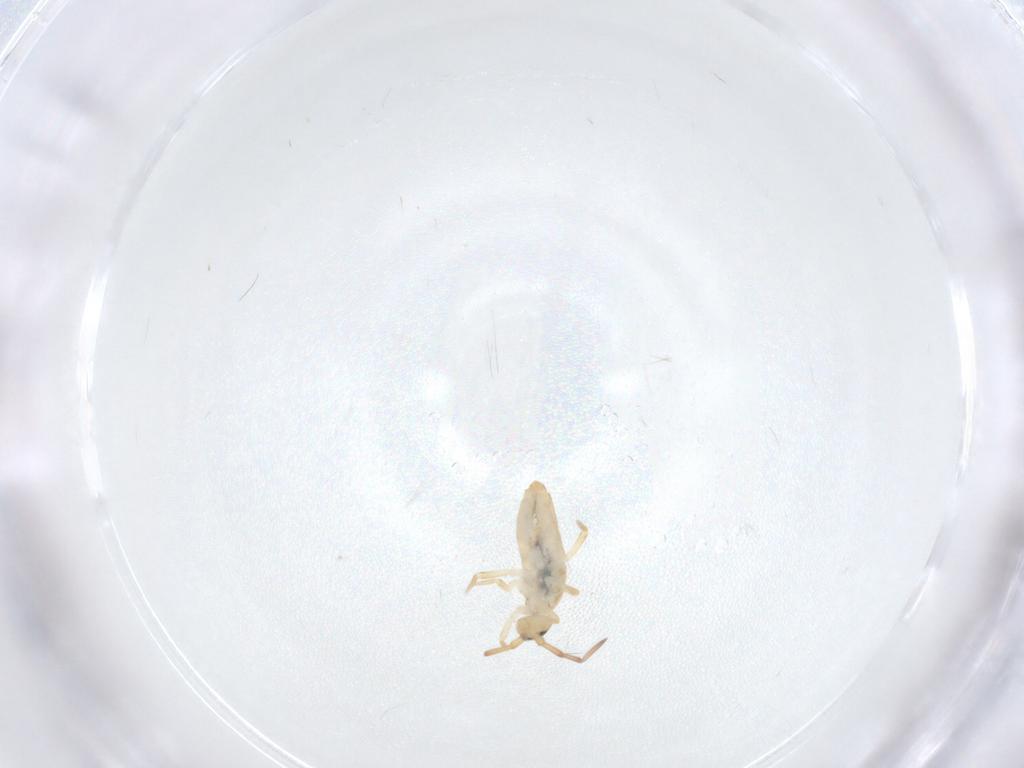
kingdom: Animalia
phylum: Arthropoda
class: Collembola
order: Entomobryomorpha
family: Entomobryidae
